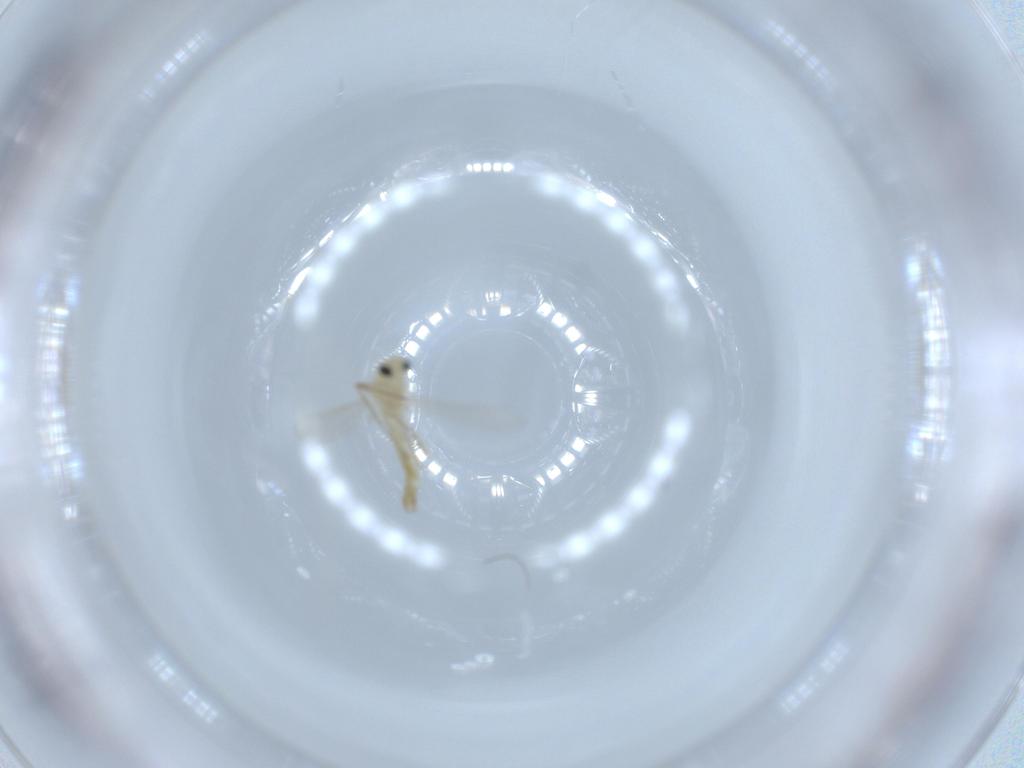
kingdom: Animalia
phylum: Arthropoda
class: Insecta
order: Diptera
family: Chironomidae
